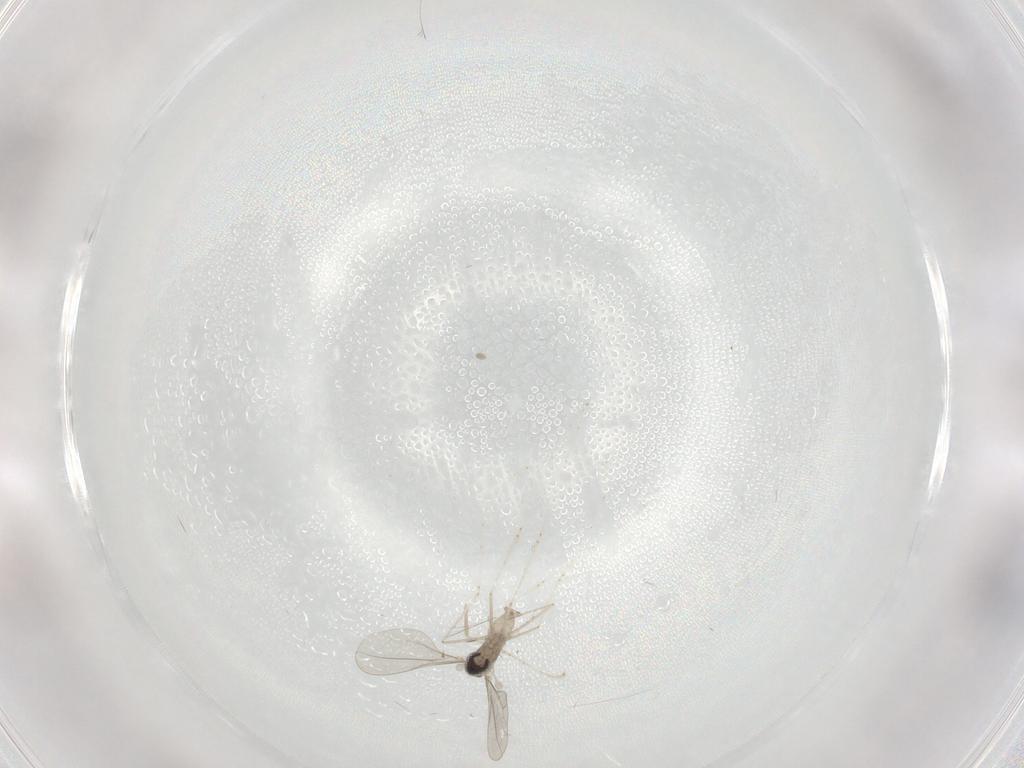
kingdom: Animalia
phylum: Arthropoda
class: Insecta
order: Diptera
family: Cecidomyiidae
